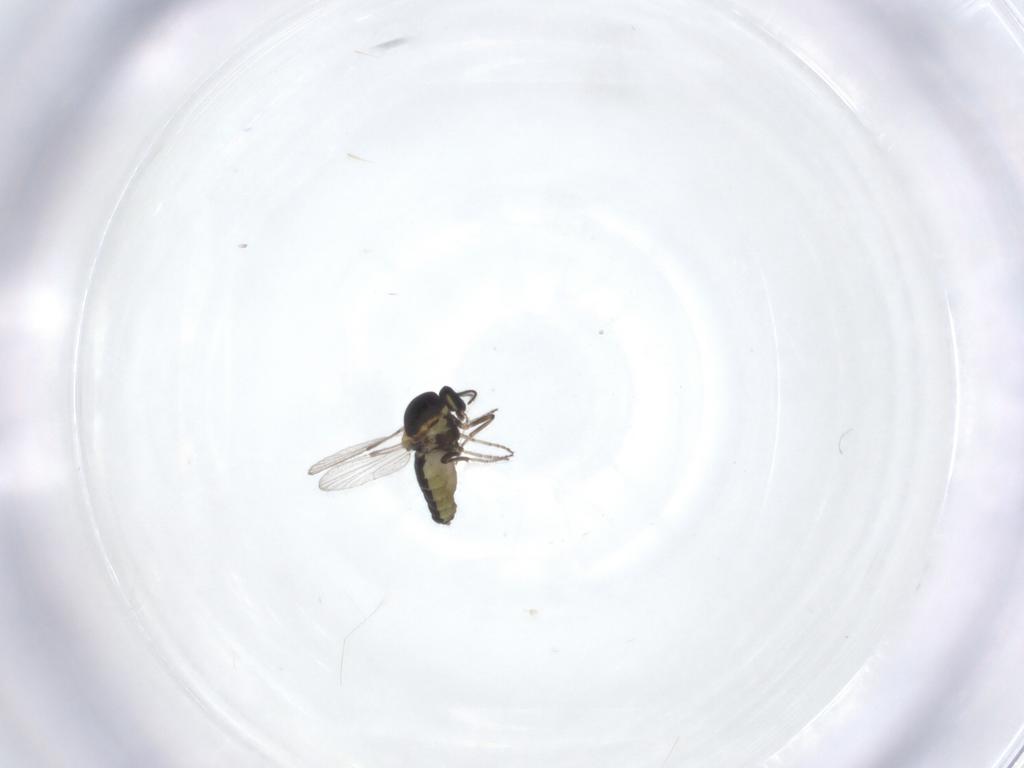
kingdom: Animalia
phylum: Arthropoda
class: Insecta
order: Diptera
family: Ceratopogonidae
